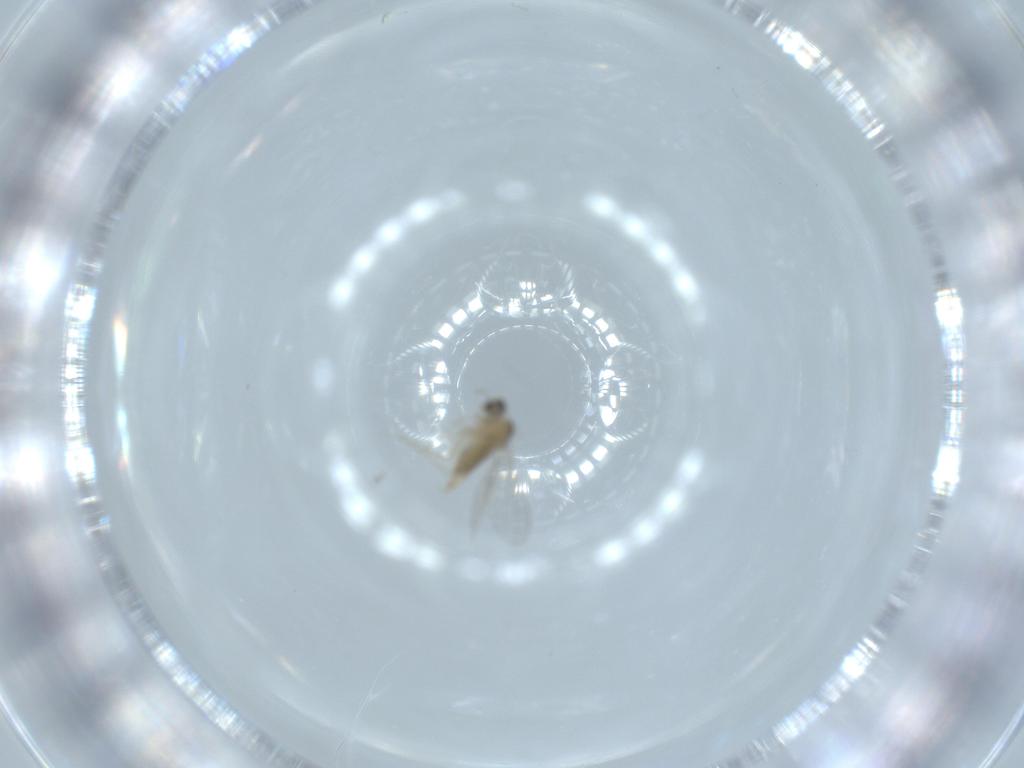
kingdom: Animalia
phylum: Arthropoda
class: Insecta
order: Diptera
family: Cecidomyiidae
